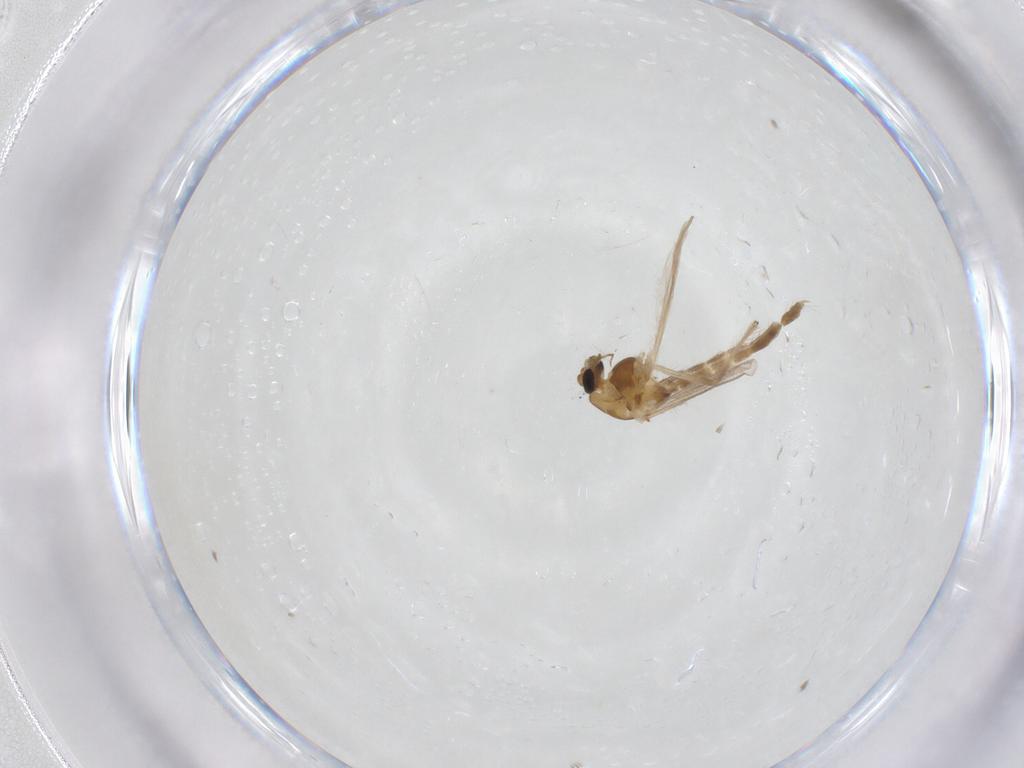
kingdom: Animalia
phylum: Arthropoda
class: Insecta
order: Diptera
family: Chironomidae
